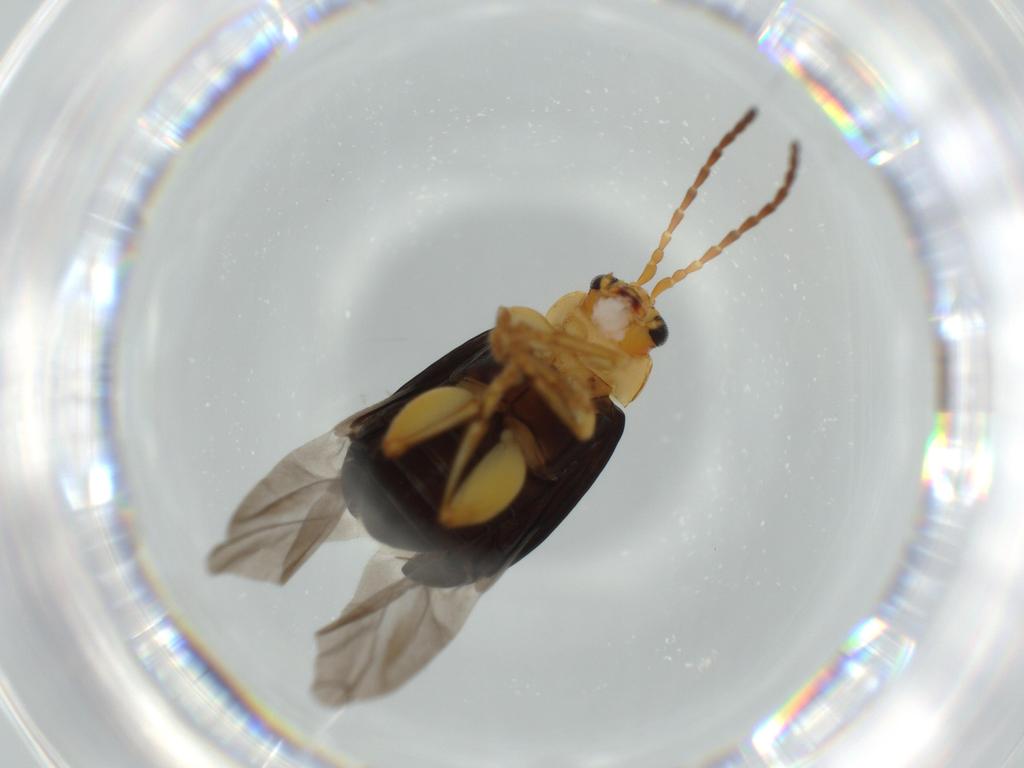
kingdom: Animalia
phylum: Arthropoda
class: Insecta
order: Coleoptera
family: Chrysomelidae
